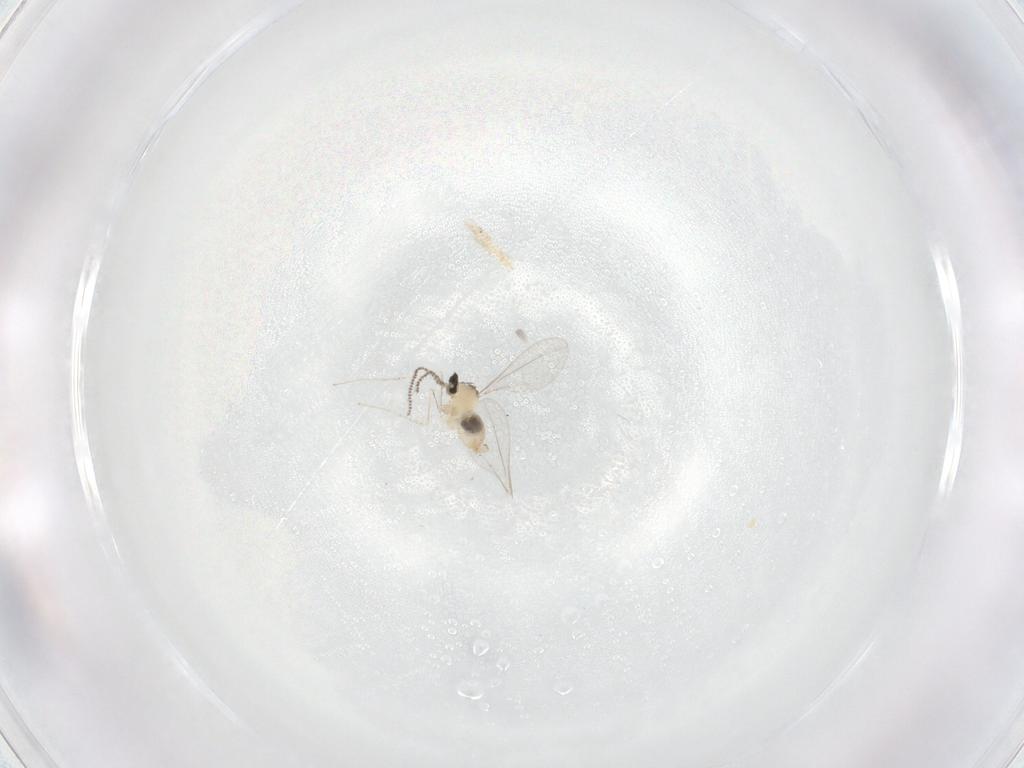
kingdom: Animalia
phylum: Arthropoda
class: Insecta
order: Diptera
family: Cecidomyiidae
